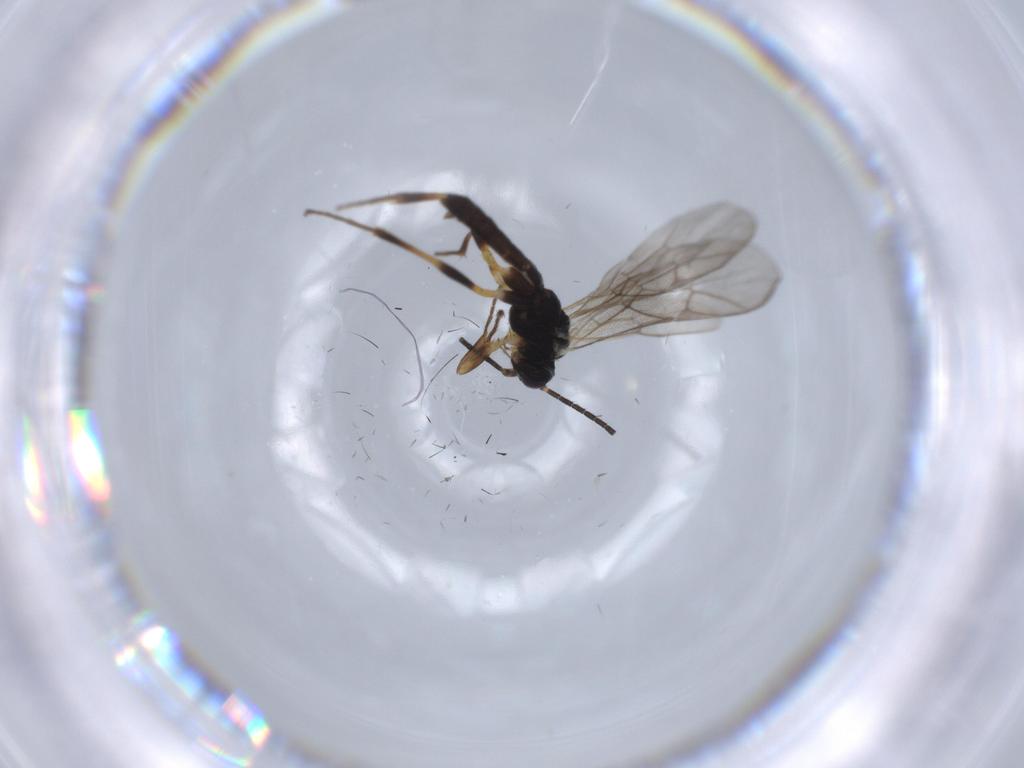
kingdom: Animalia
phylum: Arthropoda
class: Insecta
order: Hymenoptera
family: Ichneumonidae
